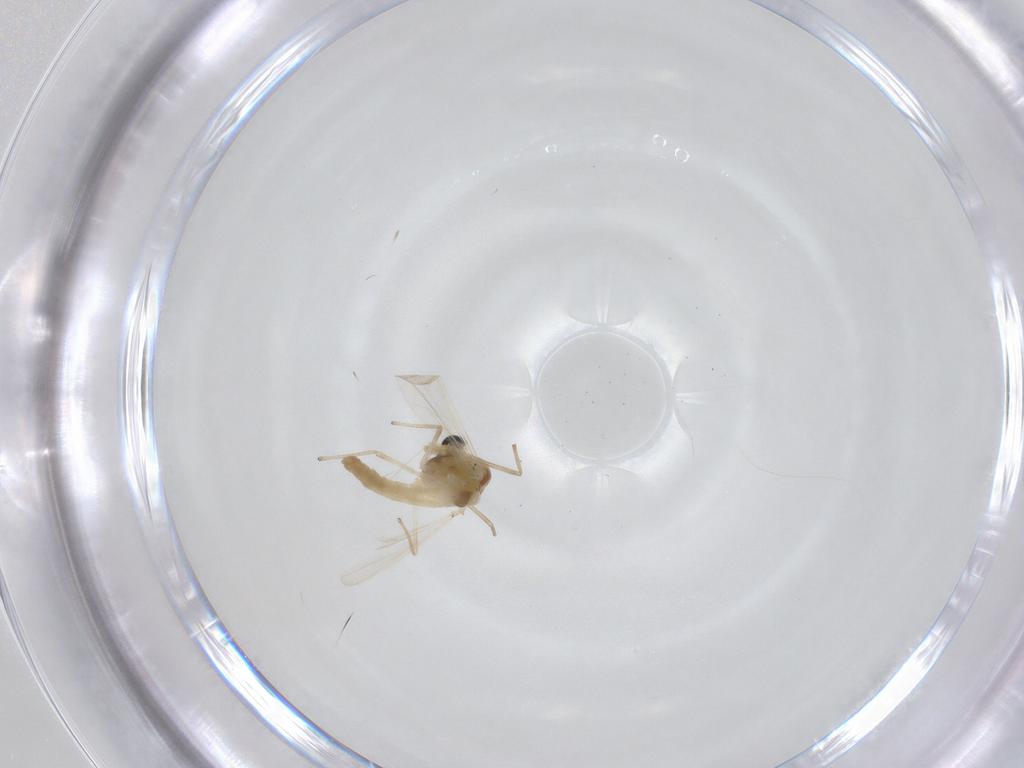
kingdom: Animalia
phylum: Arthropoda
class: Insecta
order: Diptera
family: Chironomidae
